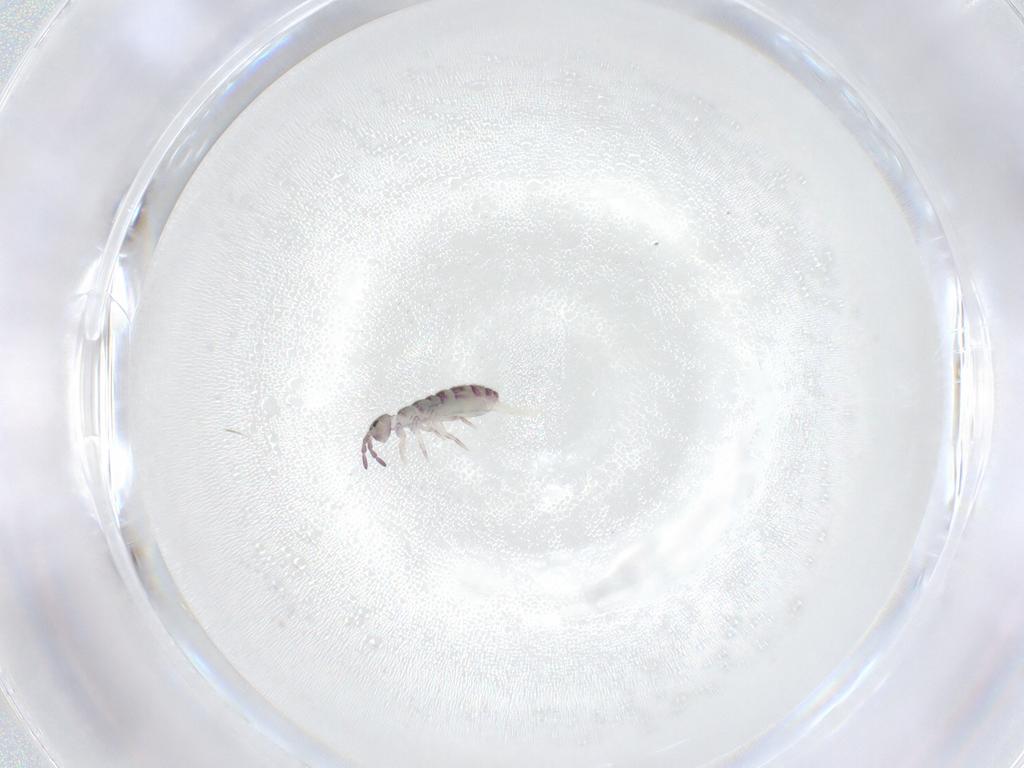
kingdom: Animalia
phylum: Arthropoda
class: Collembola
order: Entomobryomorpha
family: Isotomidae
